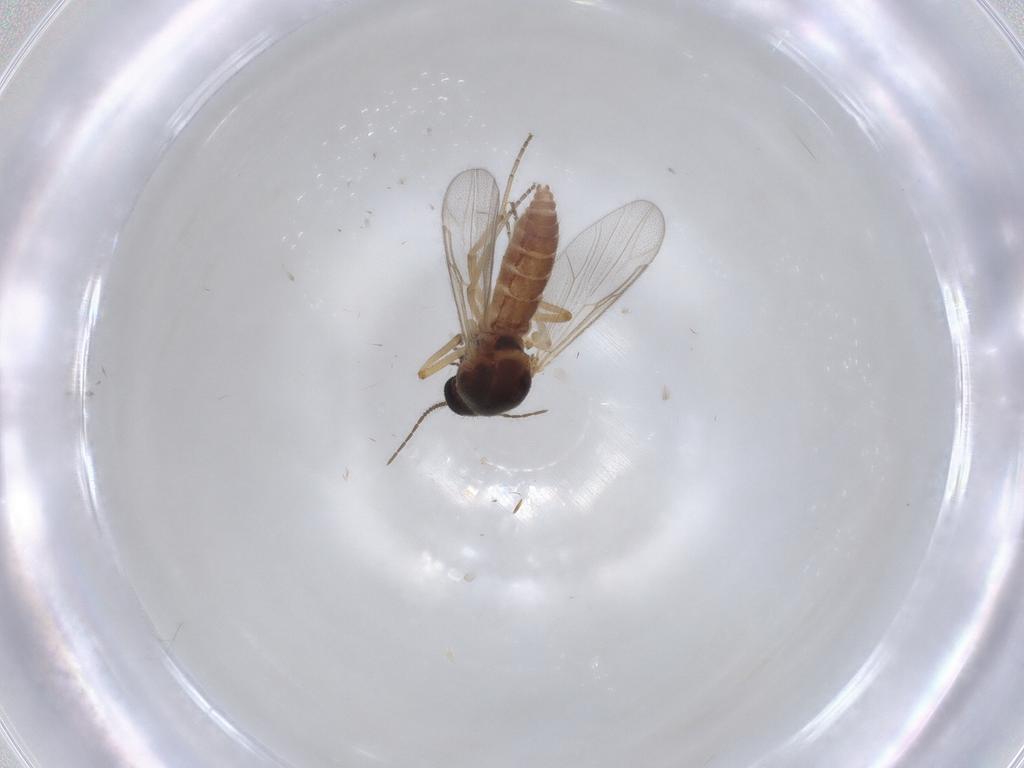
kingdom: Animalia
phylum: Arthropoda
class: Insecta
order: Diptera
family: Ceratopogonidae
